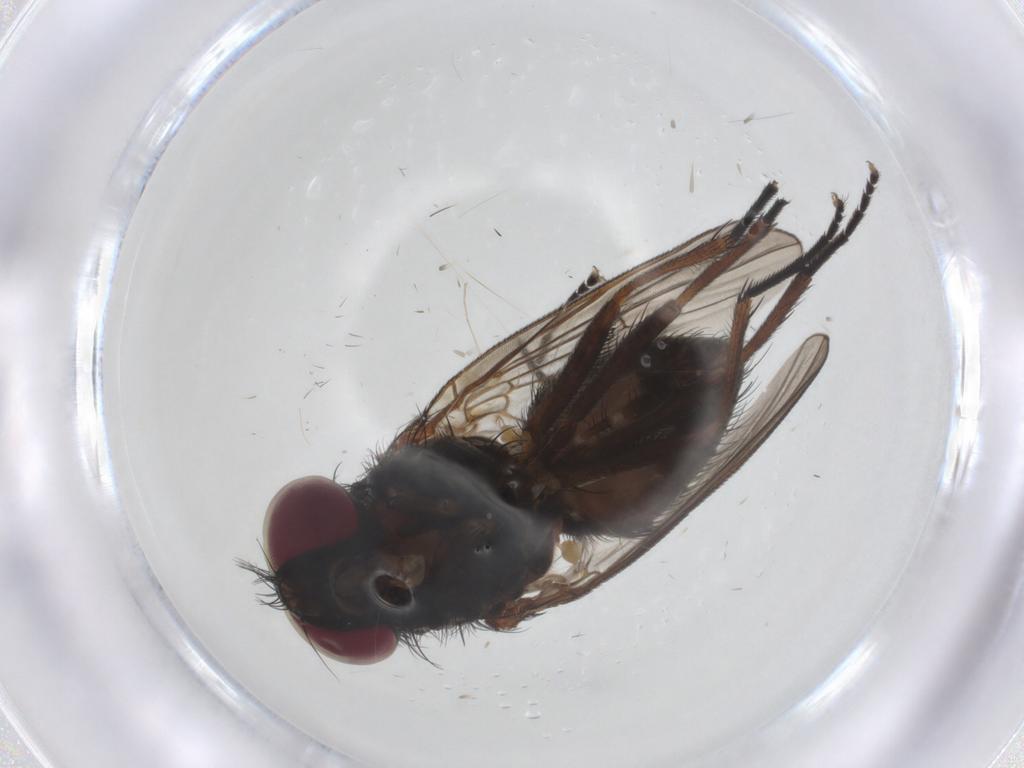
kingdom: Animalia
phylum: Arthropoda
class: Insecta
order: Diptera
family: Fannia
